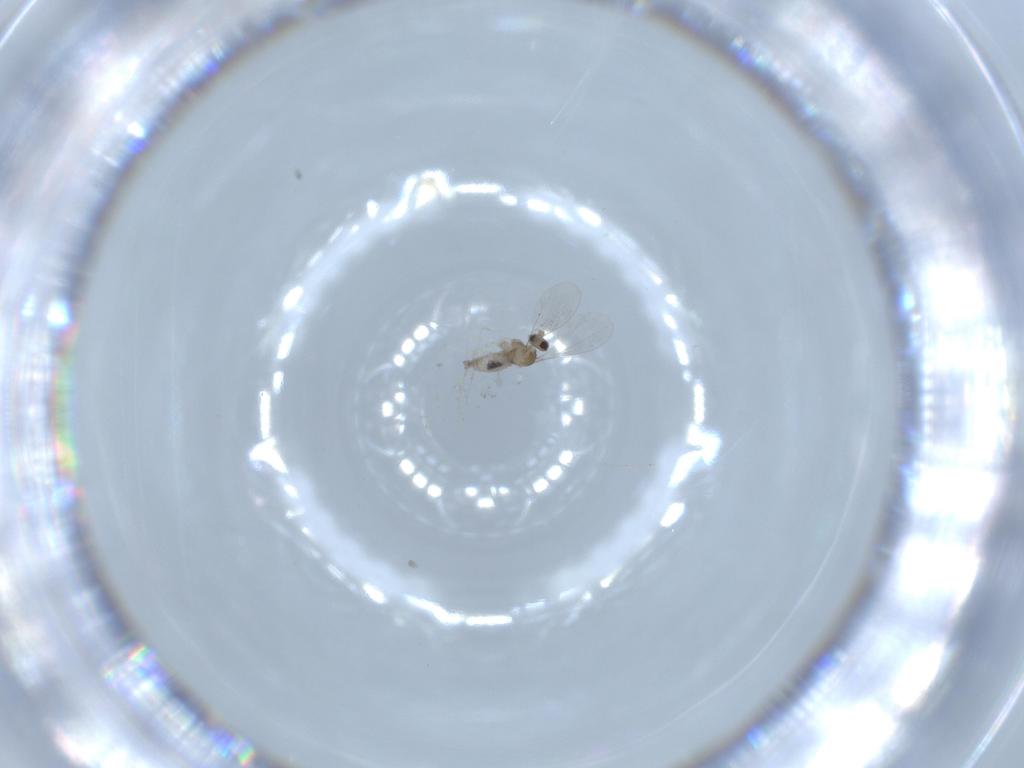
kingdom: Animalia
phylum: Arthropoda
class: Insecta
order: Diptera
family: Cecidomyiidae
